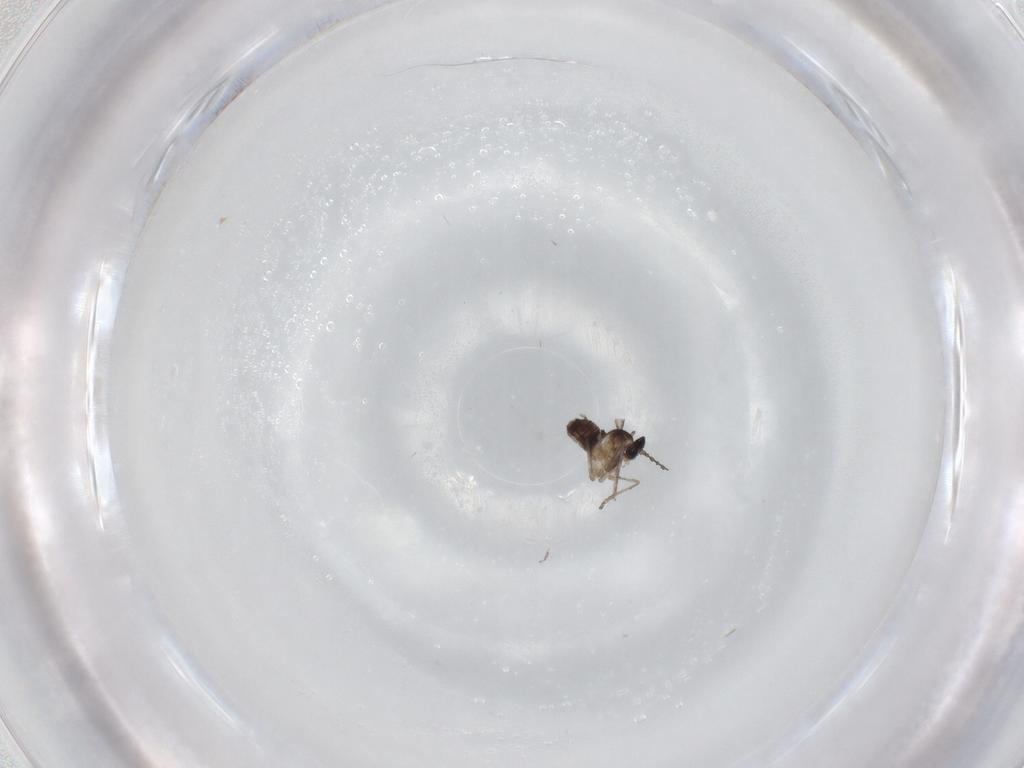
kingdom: Animalia
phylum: Arthropoda
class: Insecta
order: Diptera
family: Cecidomyiidae
